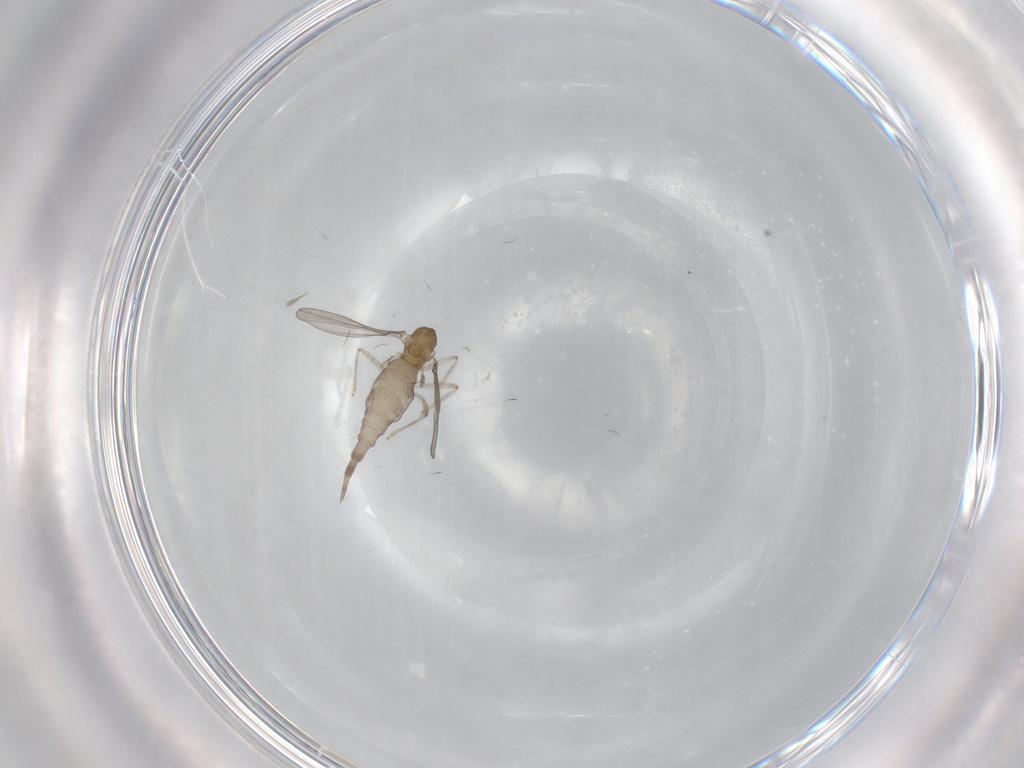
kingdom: Animalia
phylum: Arthropoda
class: Insecta
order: Diptera
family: Cecidomyiidae
